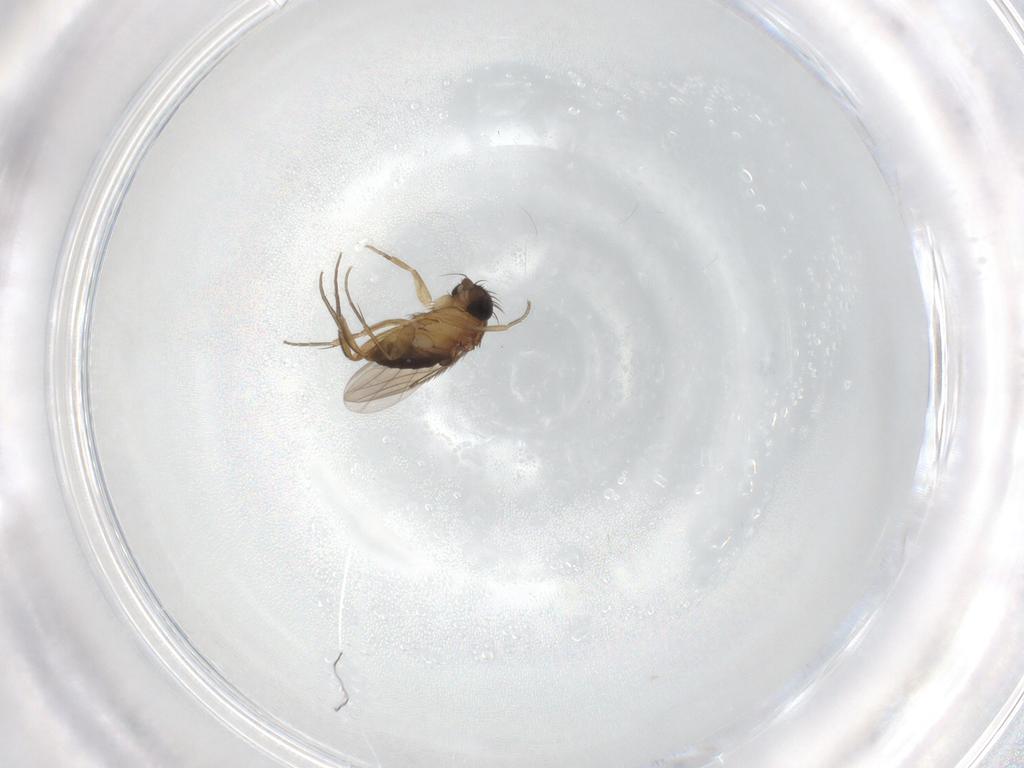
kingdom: Animalia
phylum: Arthropoda
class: Insecta
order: Diptera
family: Phoridae
